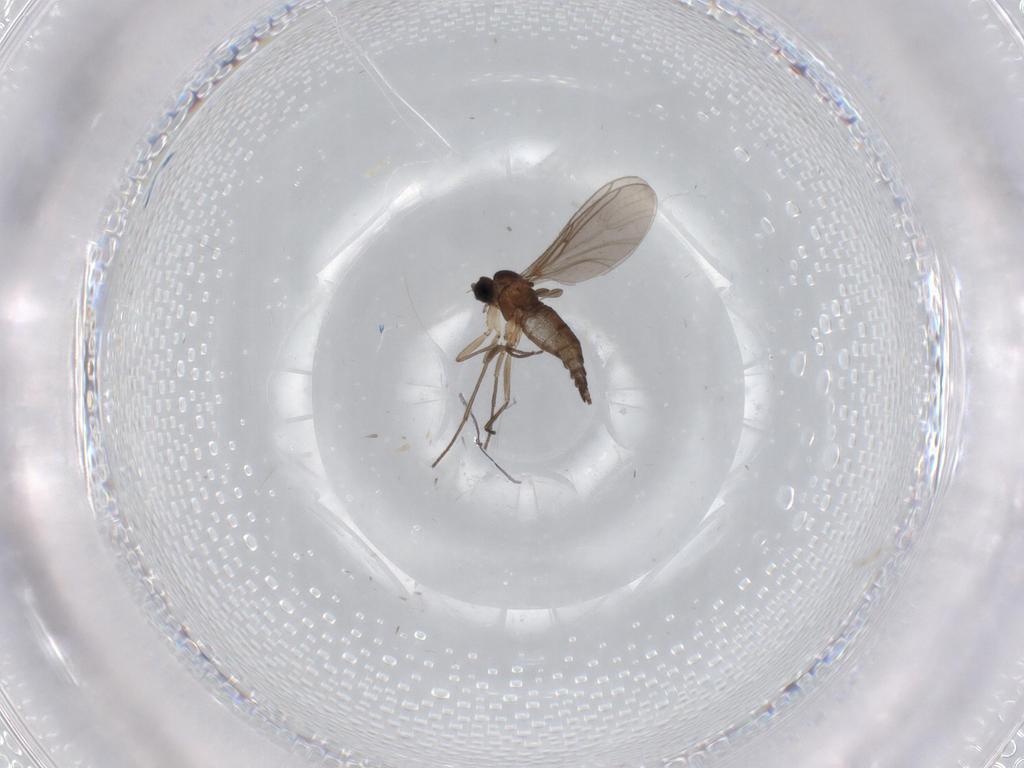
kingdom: Animalia
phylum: Arthropoda
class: Insecta
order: Diptera
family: Sciaridae
